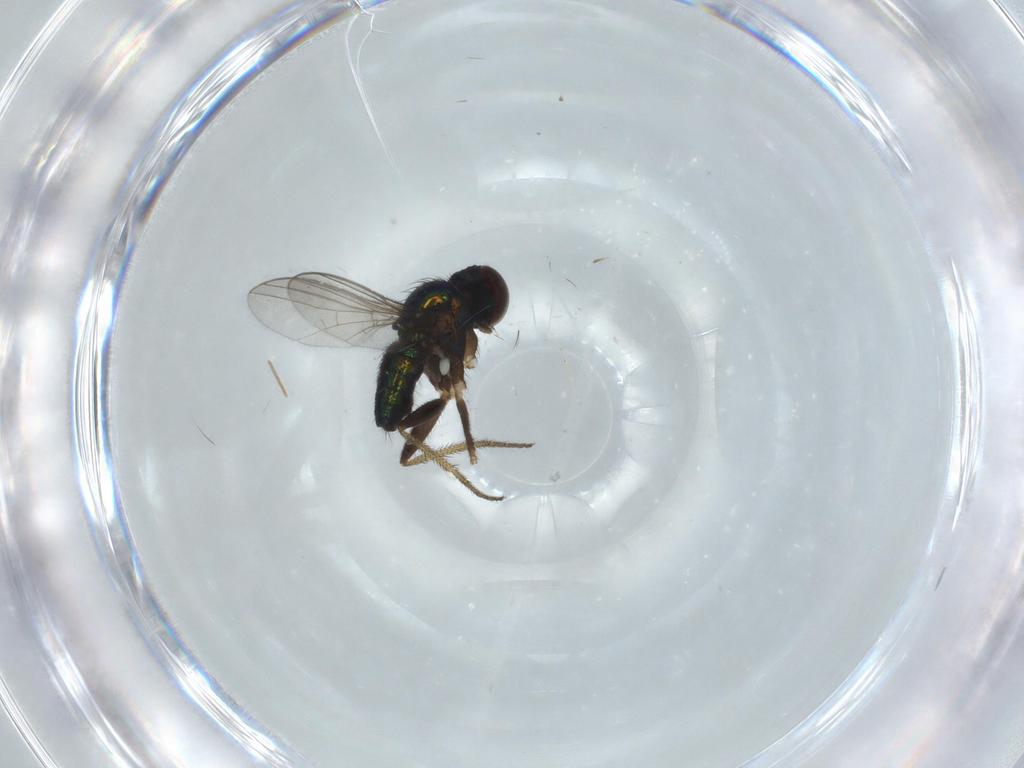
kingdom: Animalia
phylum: Arthropoda
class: Insecta
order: Diptera
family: Dolichopodidae
